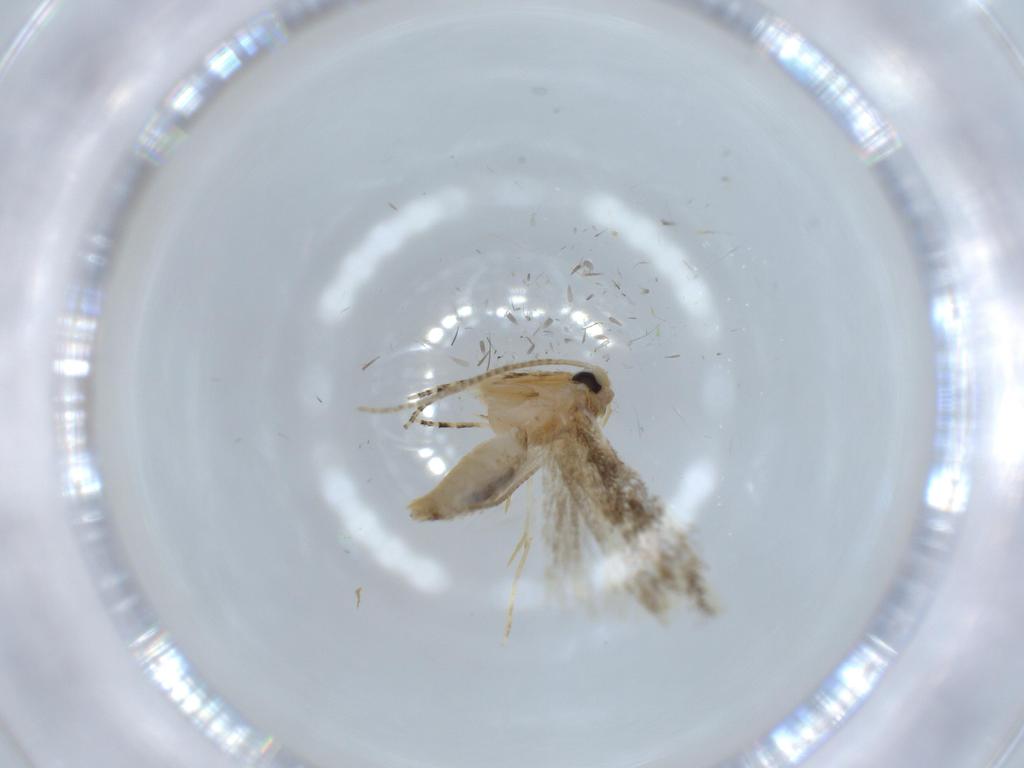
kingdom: Animalia
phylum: Arthropoda
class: Insecta
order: Lepidoptera
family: Bucculatricidae
